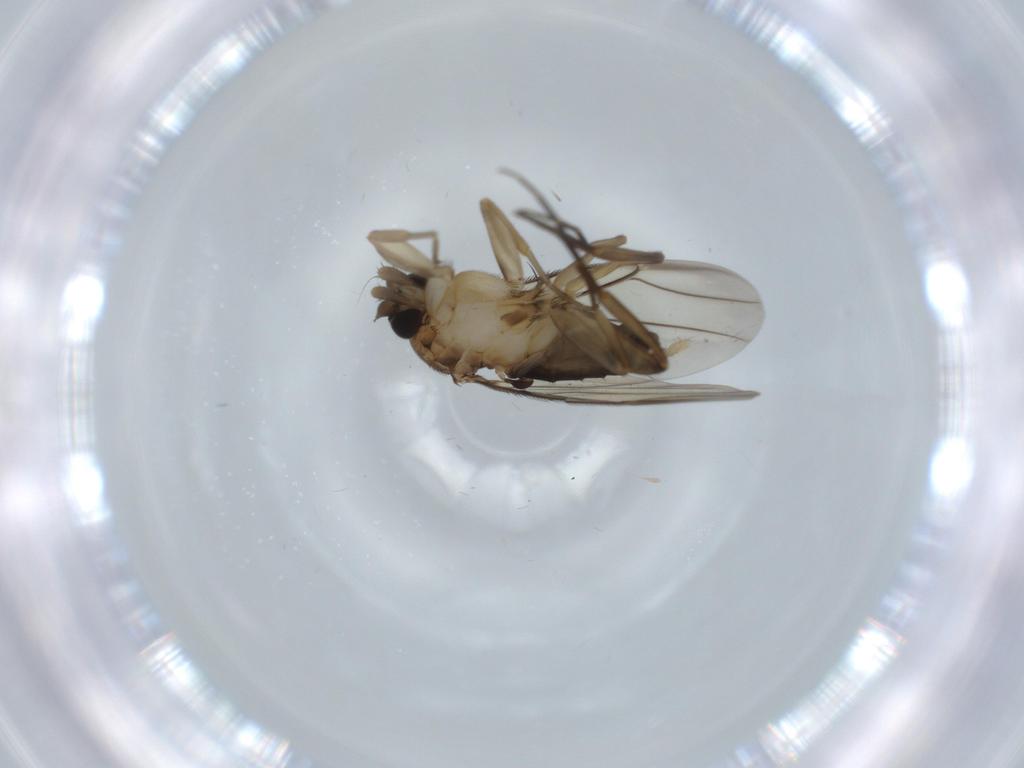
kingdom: Animalia
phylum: Arthropoda
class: Insecta
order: Diptera
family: Phoridae
